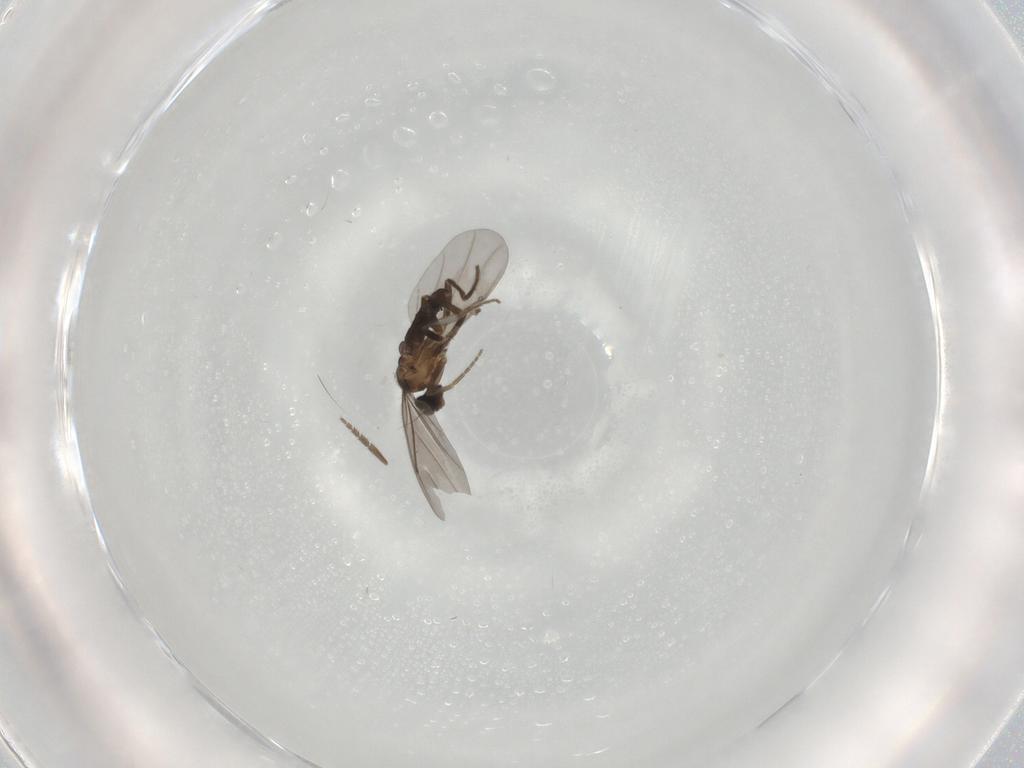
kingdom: Animalia
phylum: Arthropoda
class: Insecta
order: Diptera
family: Phoridae
